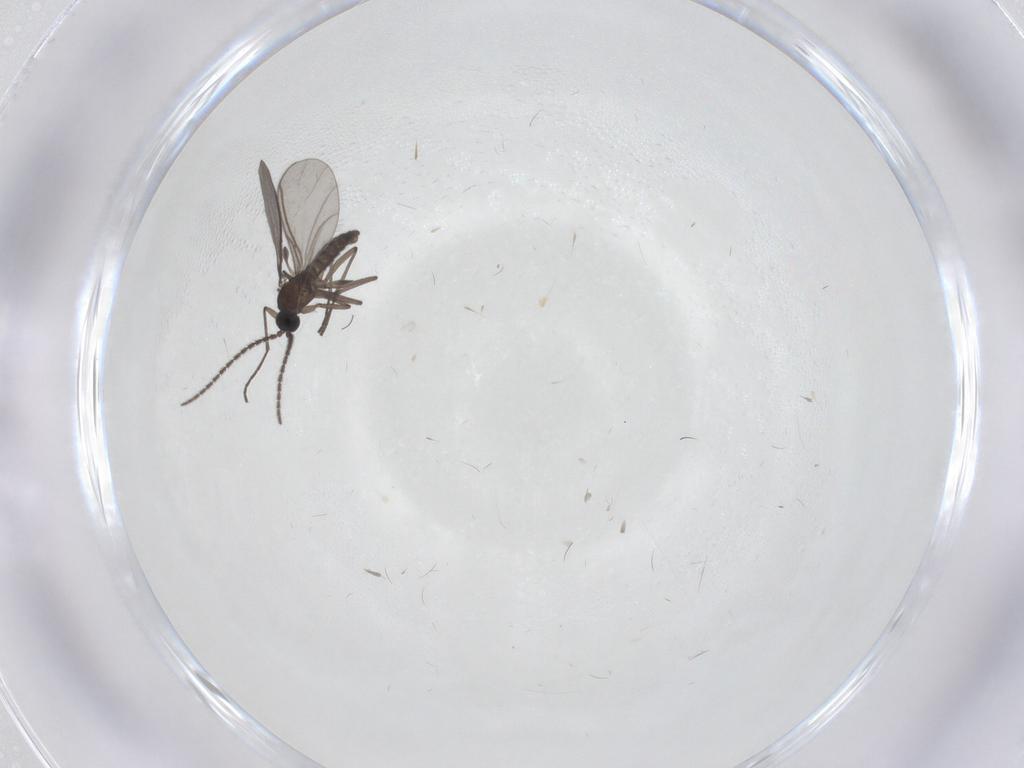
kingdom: Animalia
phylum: Arthropoda
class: Insecta
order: Diptera
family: Sciaridae
